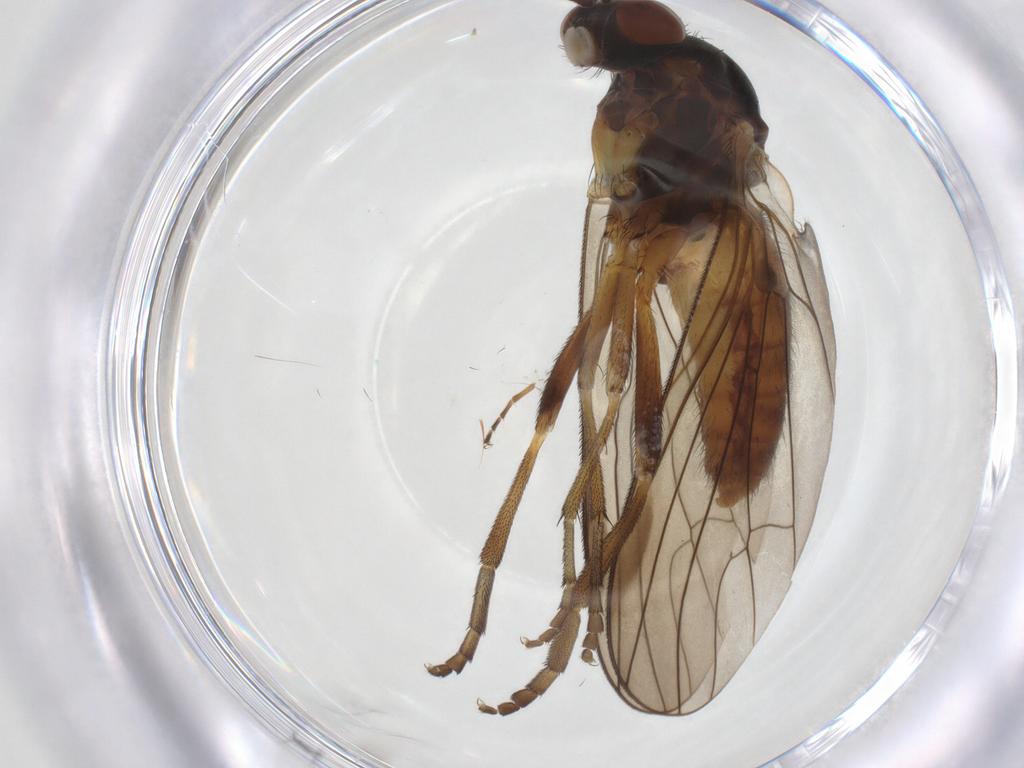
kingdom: Animalia
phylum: Arthropoda
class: Insecta
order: Diptera
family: Platypezidae
